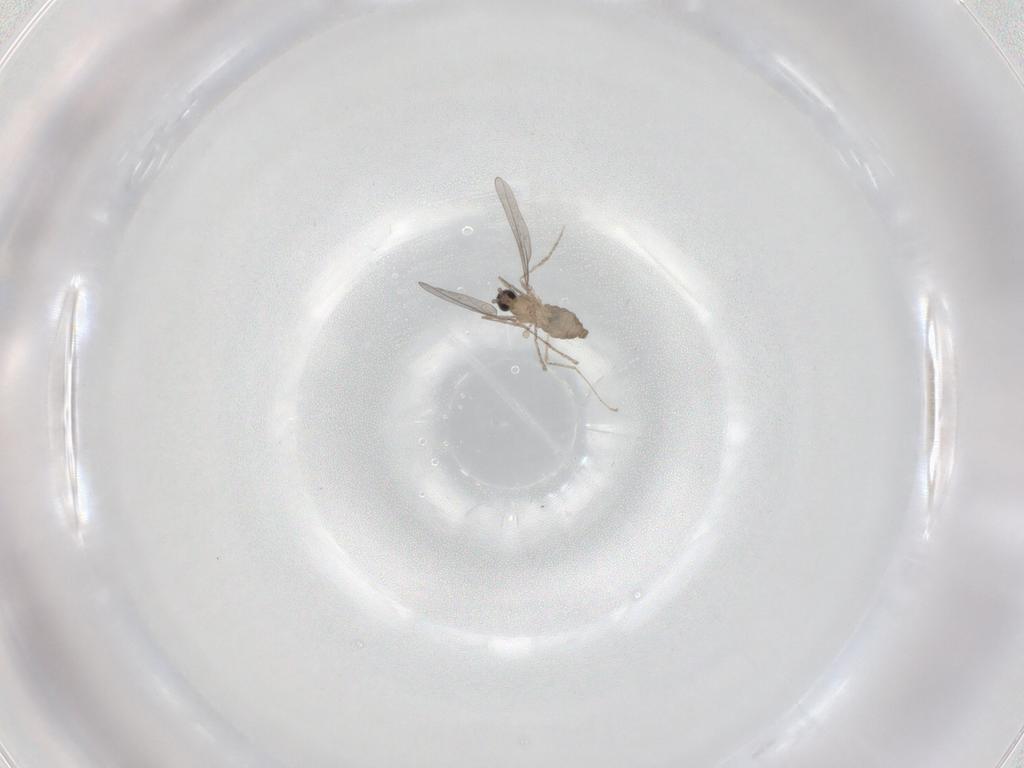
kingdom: Animalia
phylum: Arthropoda
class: Insecta
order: Diptera
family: Cecidomyiidae
